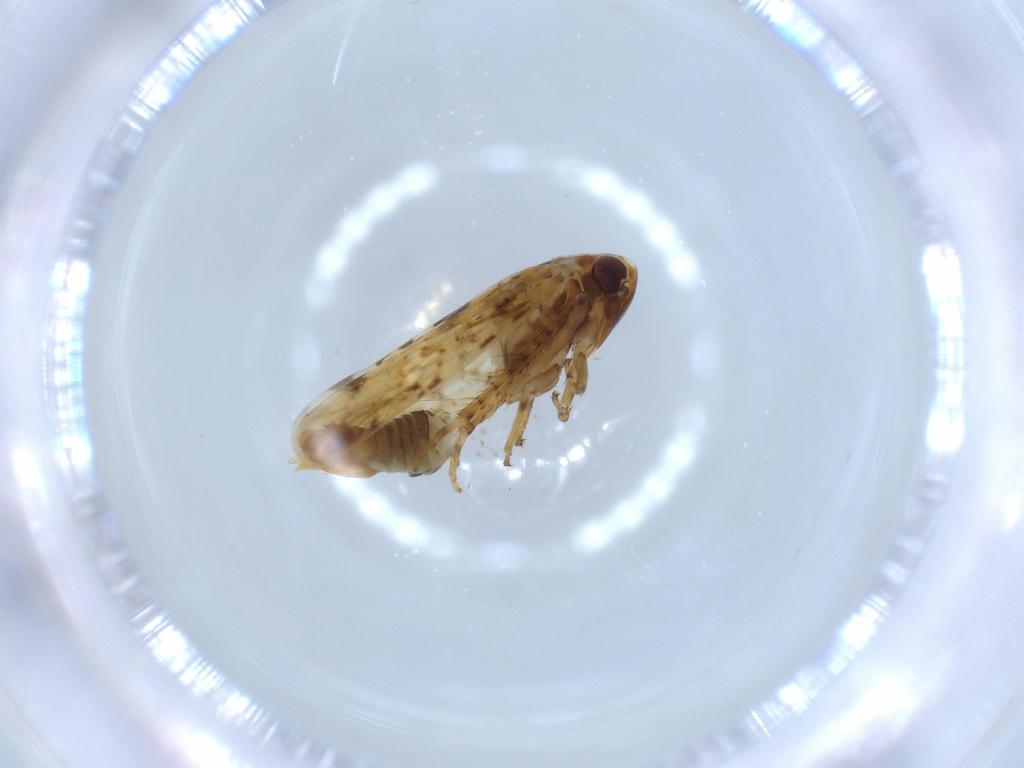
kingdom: Animalia
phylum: Arthropoda
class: Insecta
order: Hemiptera
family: Cicadellidae
